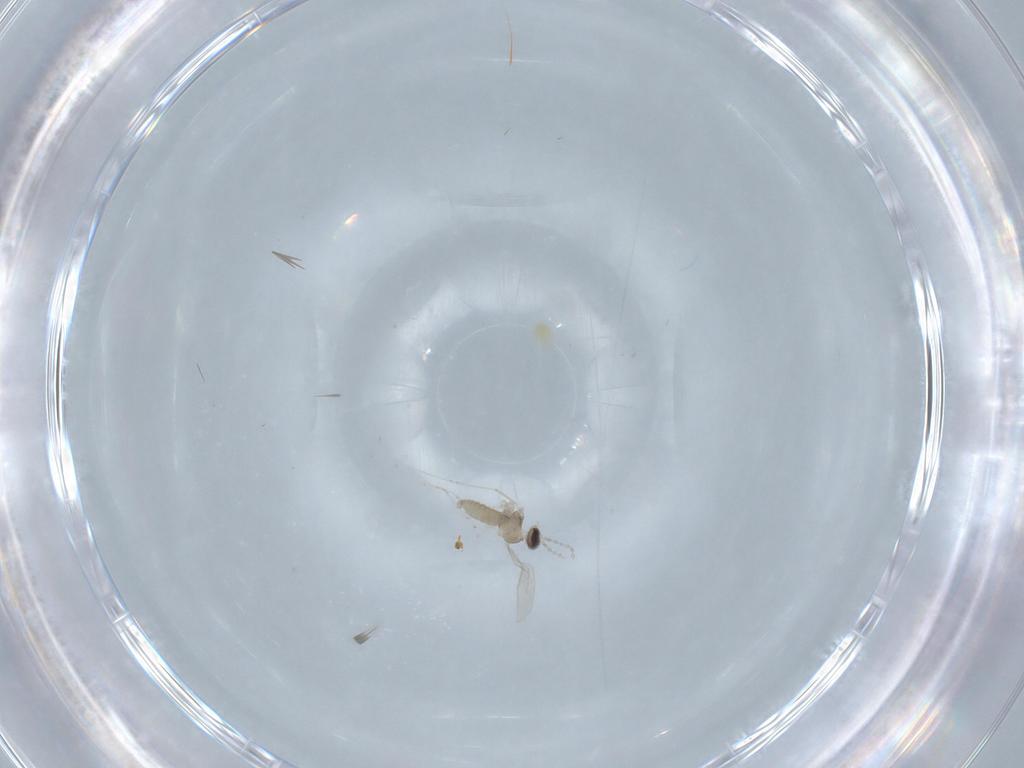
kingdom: Animalia
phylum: Arthropoda
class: Insecta
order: Diptera
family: Cecidomyiidae
